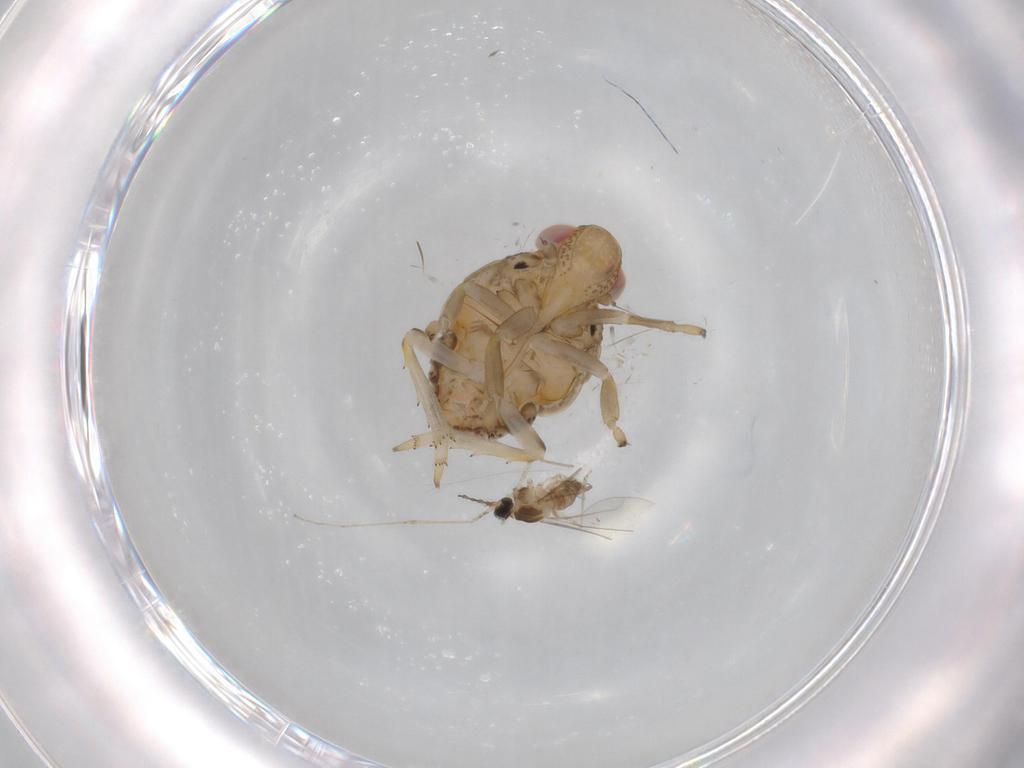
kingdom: Animalia
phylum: Arthropoda
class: Insecta
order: Diptera
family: Cecidomyiidae
